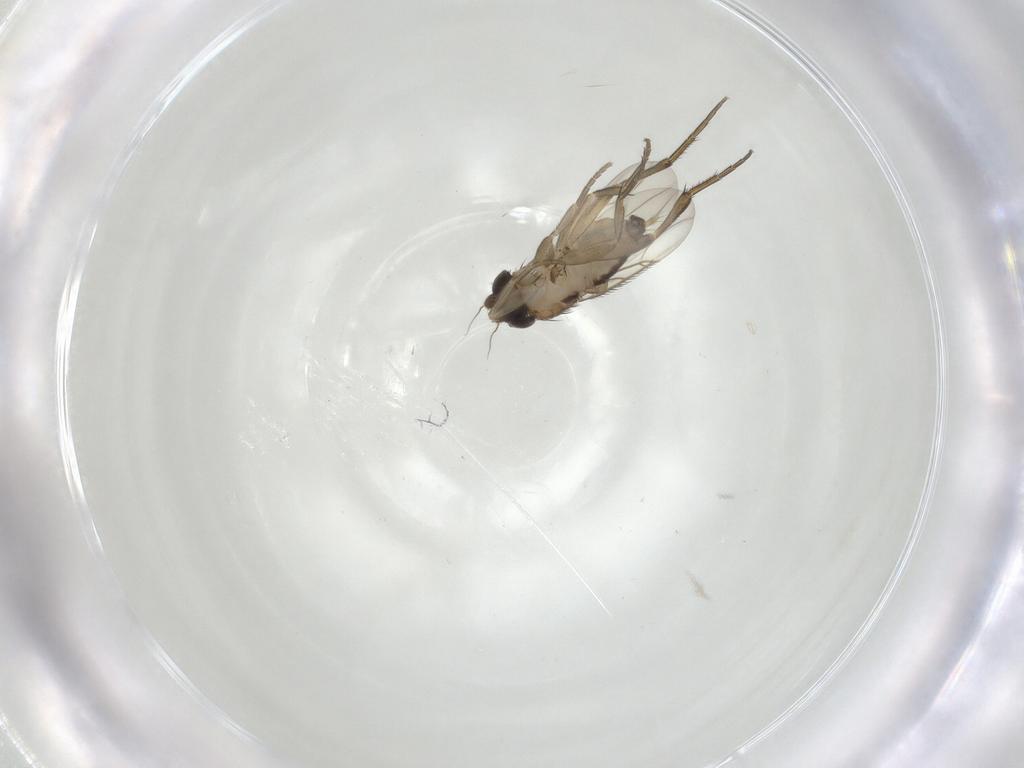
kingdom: Animalia
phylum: Arthropoda
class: Insecta
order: Diptera
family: Phoridae
